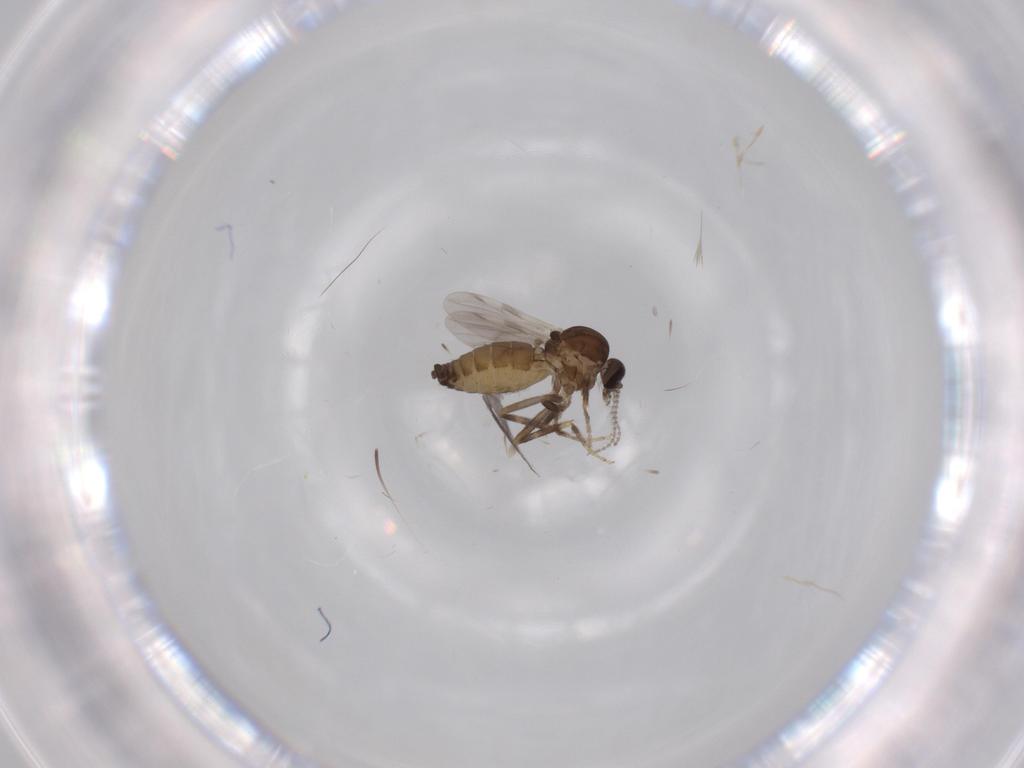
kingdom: Animalia
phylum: Arthropoda
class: Insecta
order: Diptera
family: Ceratopogonidae
